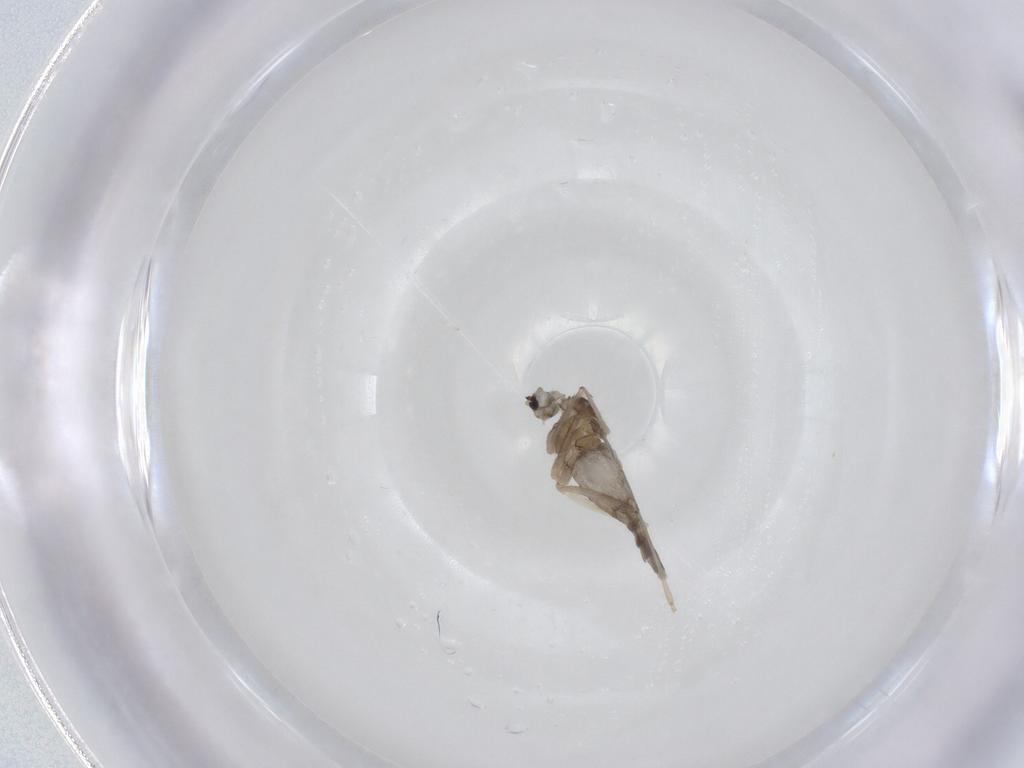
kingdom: Animalia
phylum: Arthropoda
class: Insecta
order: Diptera
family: Cecidomyiidae
